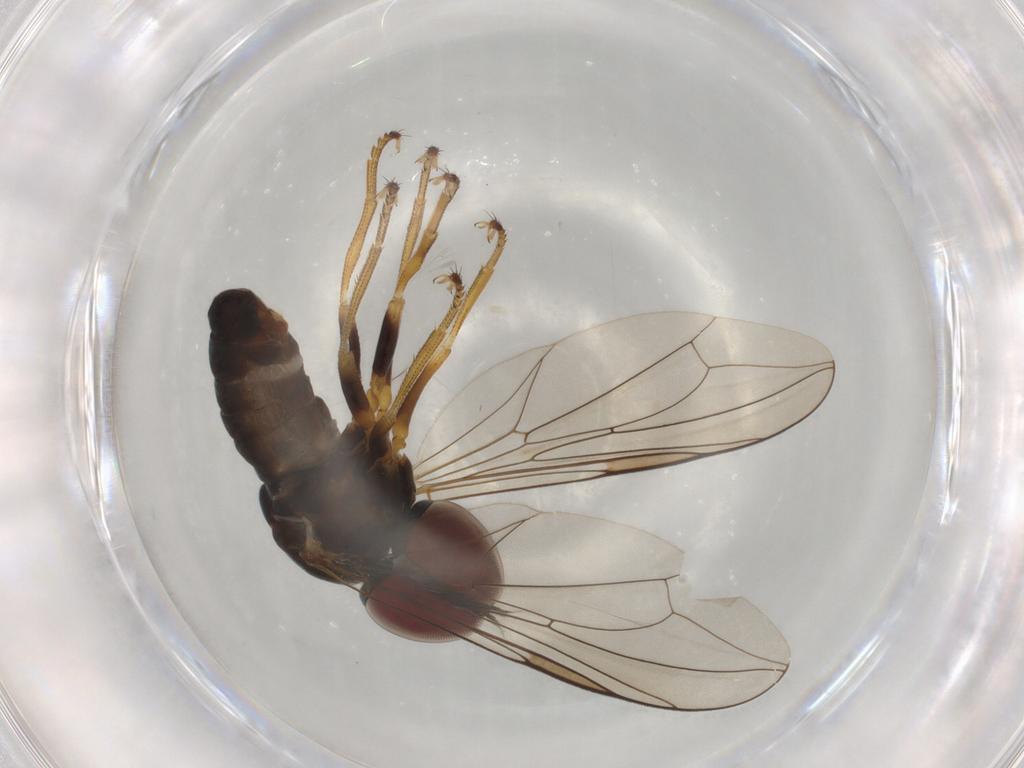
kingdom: Animalia
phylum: Arthropoda
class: Insecta
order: Diptera
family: Pipunculidae
